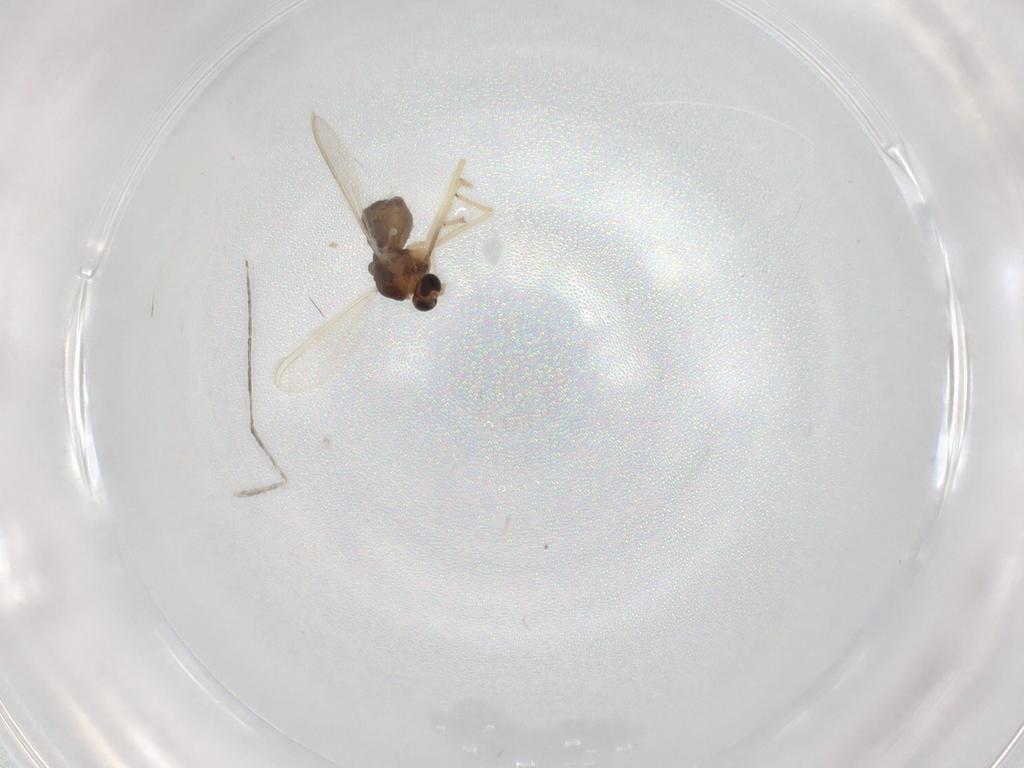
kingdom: Animalia
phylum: Arthropoda
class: Insecta
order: Diptera
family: Chironomidae
